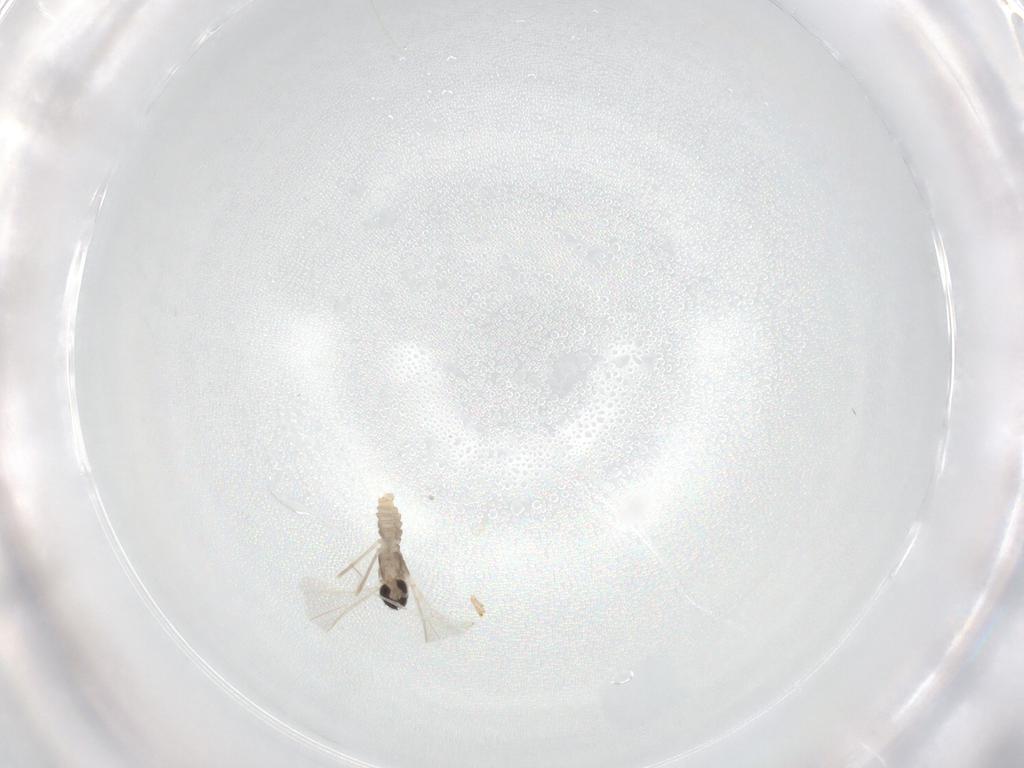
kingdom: Animalia
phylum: Arthropoda
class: Insecta
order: Diptera
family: Cecidomyiidae
